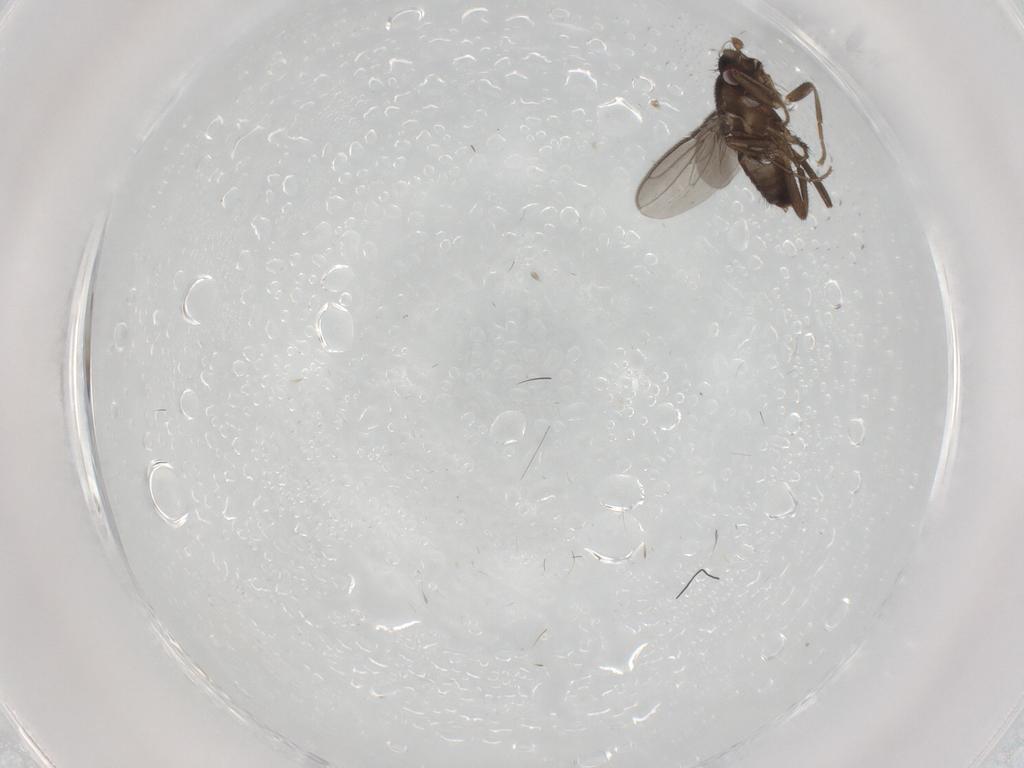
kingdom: Animalia
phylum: Arthropoda
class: Insecta
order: Diptera
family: Sphaeroceridae
